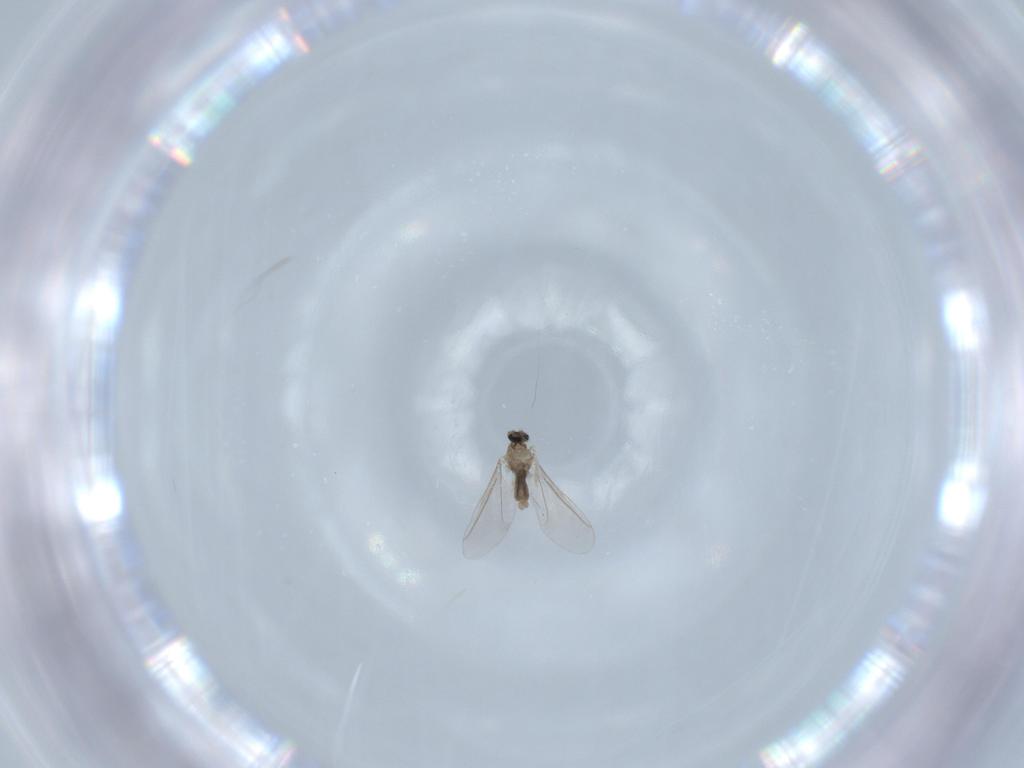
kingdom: Animalia
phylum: Arthropoda
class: Insecta
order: Diptera
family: Cecidomyiidae
